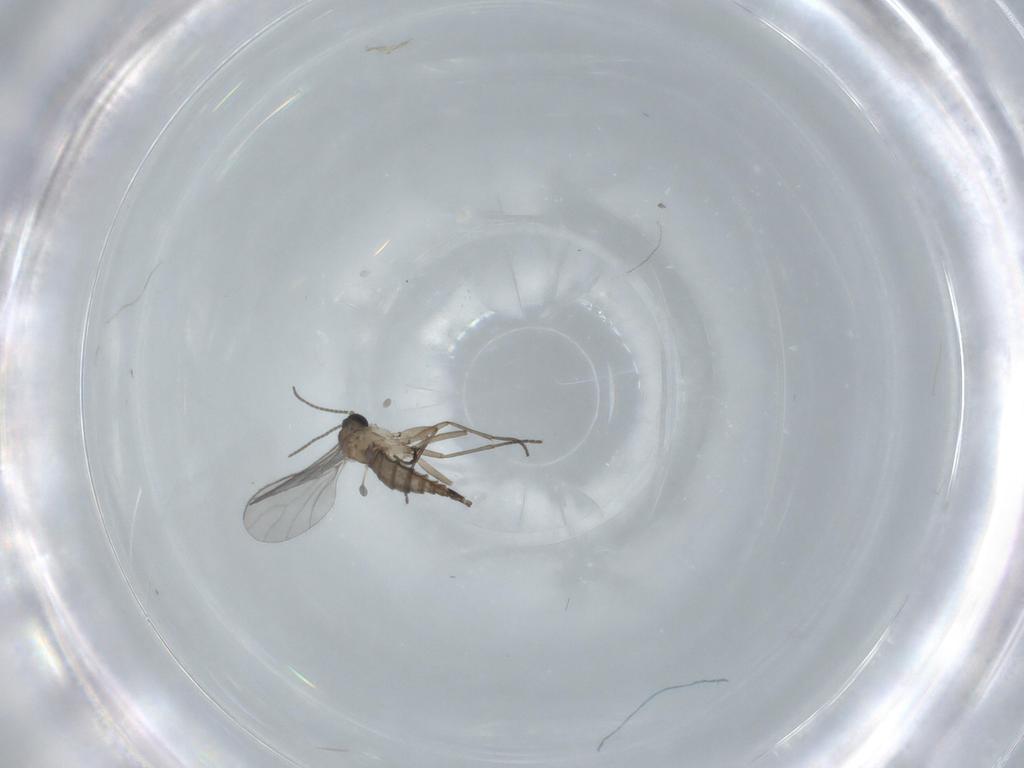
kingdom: Animalia
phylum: Arthropoda
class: Insecta
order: Diptera
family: Sciaridae
